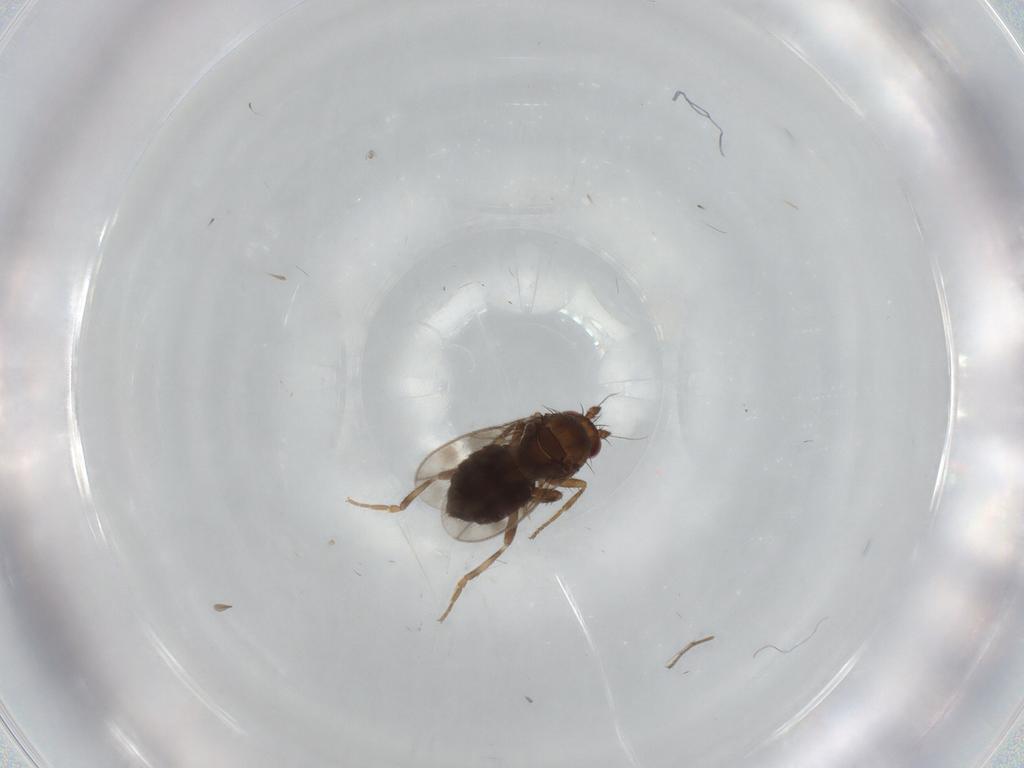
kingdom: Animalia
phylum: Arthropoda
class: Insecta
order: Diptera
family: Sphaeroceridae
